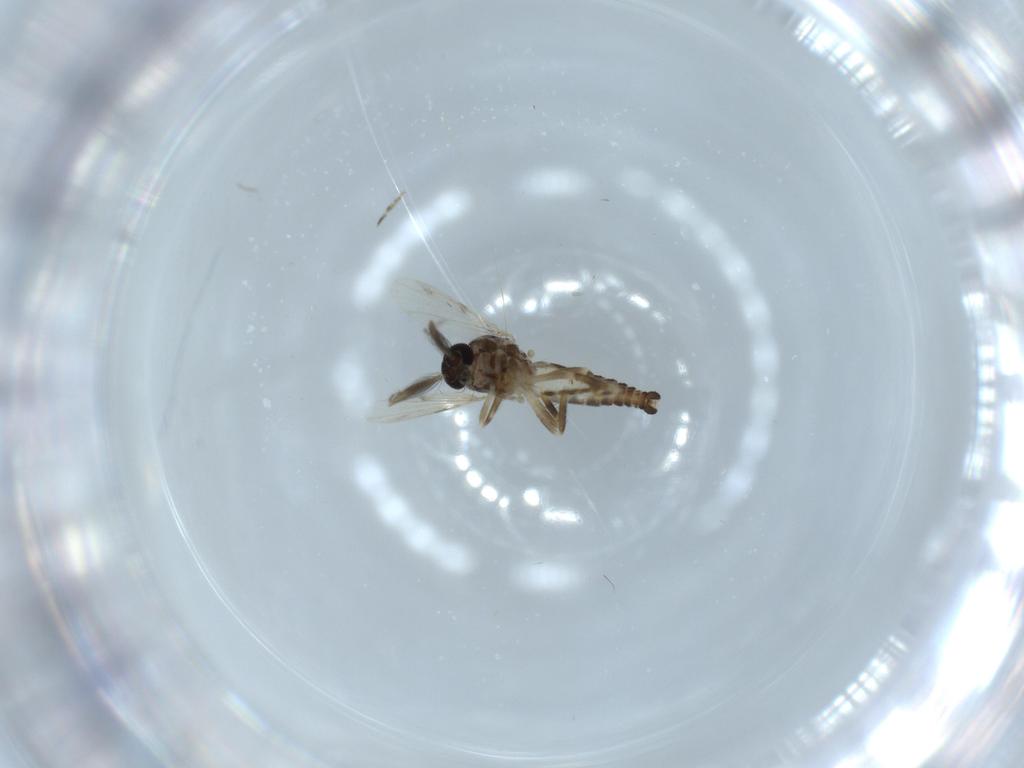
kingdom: Animalia
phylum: Arthropoda
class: Insecta
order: Diptera
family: Ceratopogonidae
